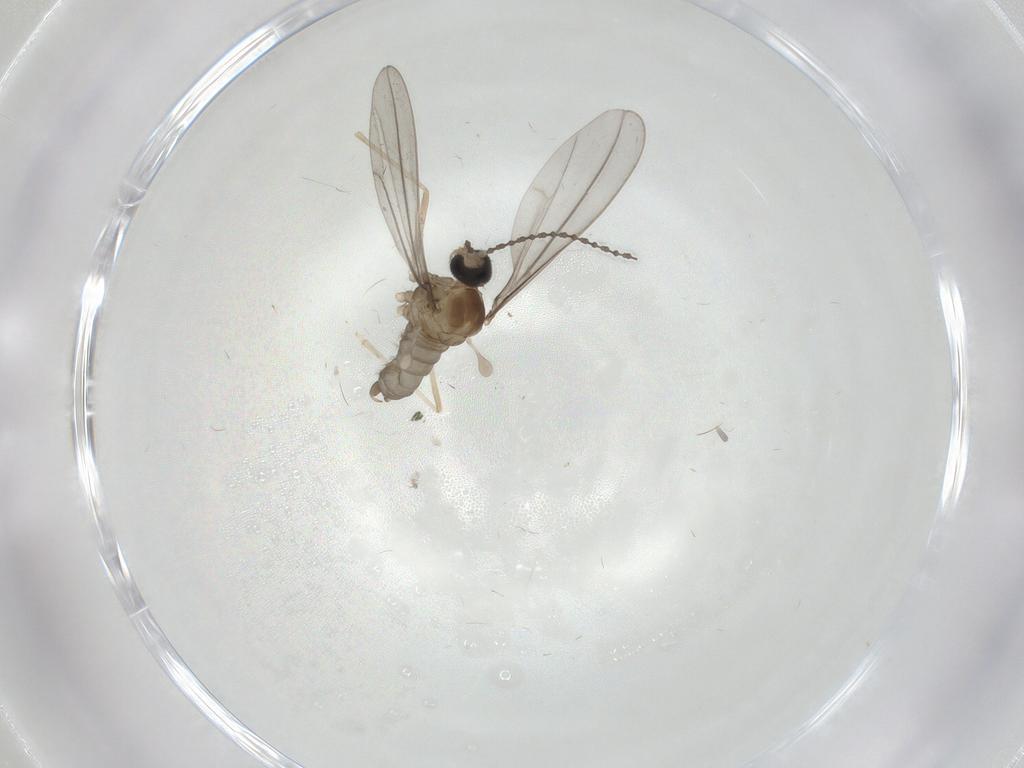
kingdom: Animalia
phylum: Arthropoda
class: Insecta
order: Diptera
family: Cecidomyiidae
